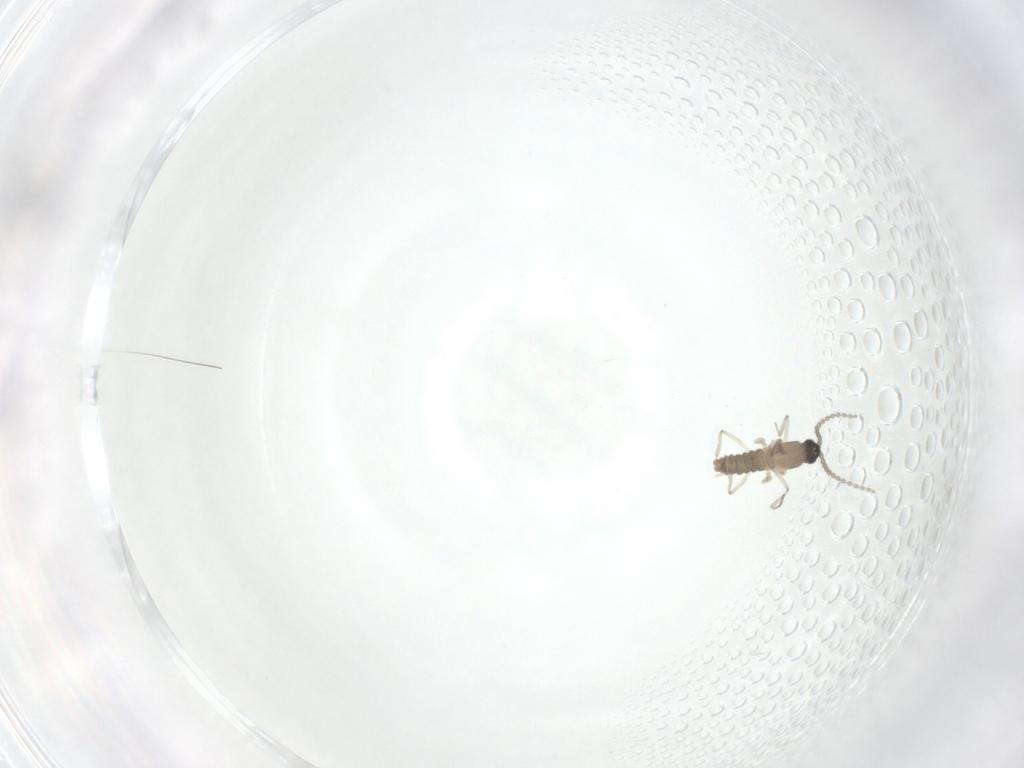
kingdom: Animalia
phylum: Arthropoda
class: Insecta
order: Diptera
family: Cecidomyiidae
